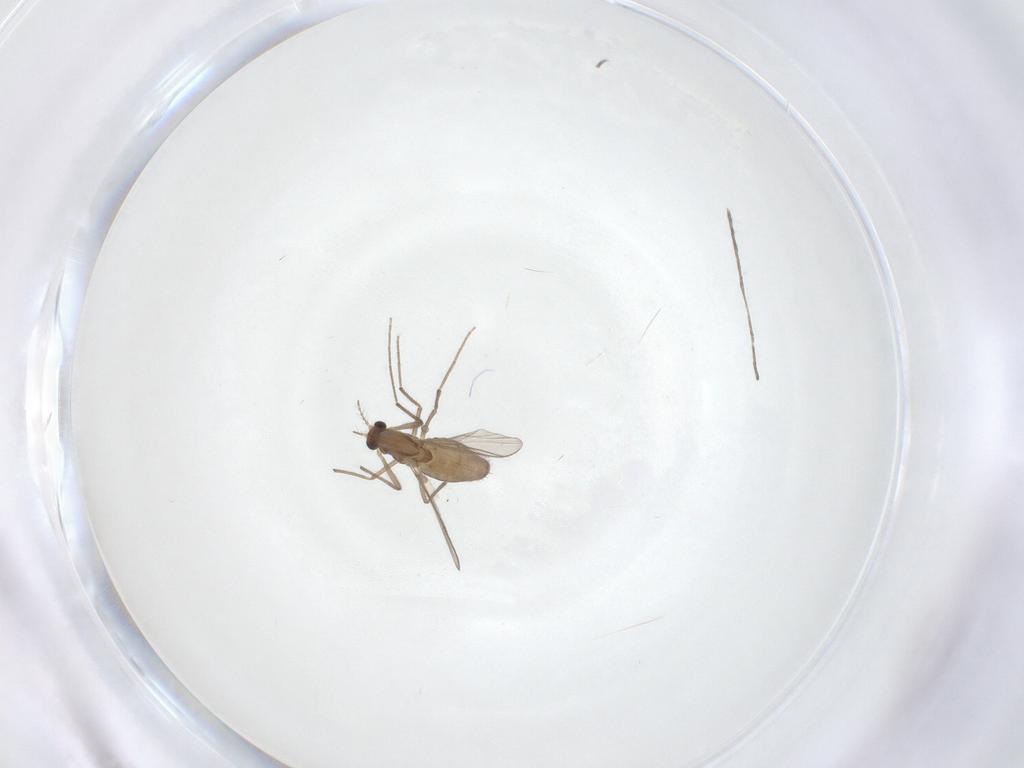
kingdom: Animalia
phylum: Arthropoda
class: Insecta
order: Diptera
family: Chironomidae
